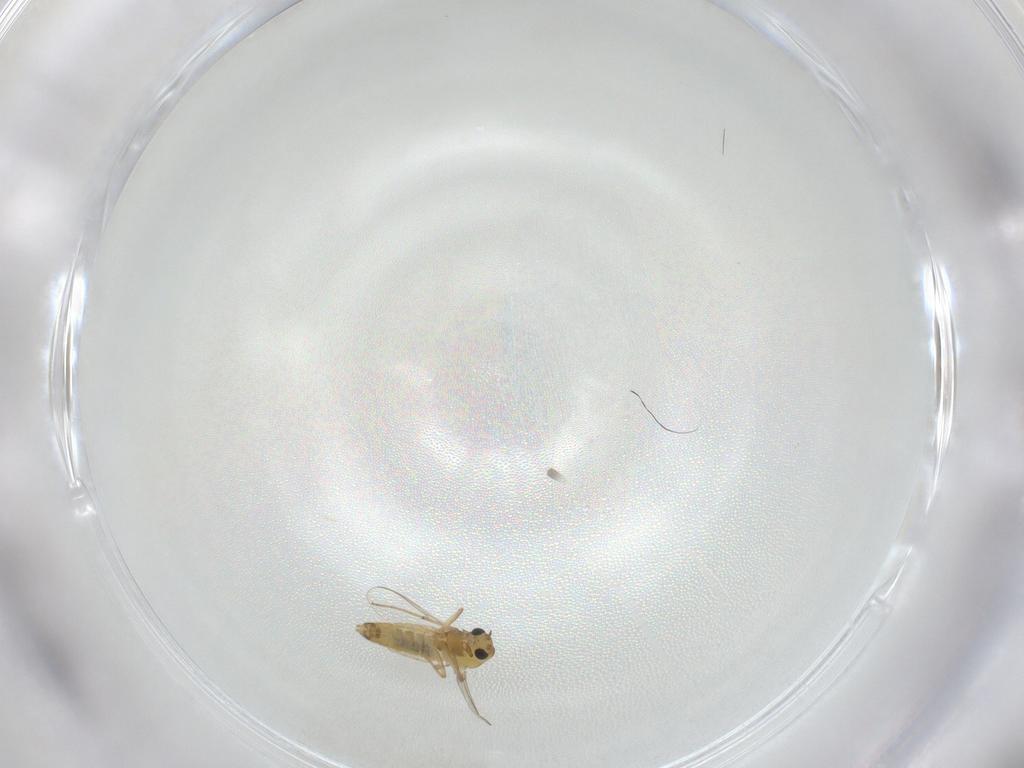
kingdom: Animalia
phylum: Arthropoda
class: Insecta
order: Diptera
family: Chironomidae
